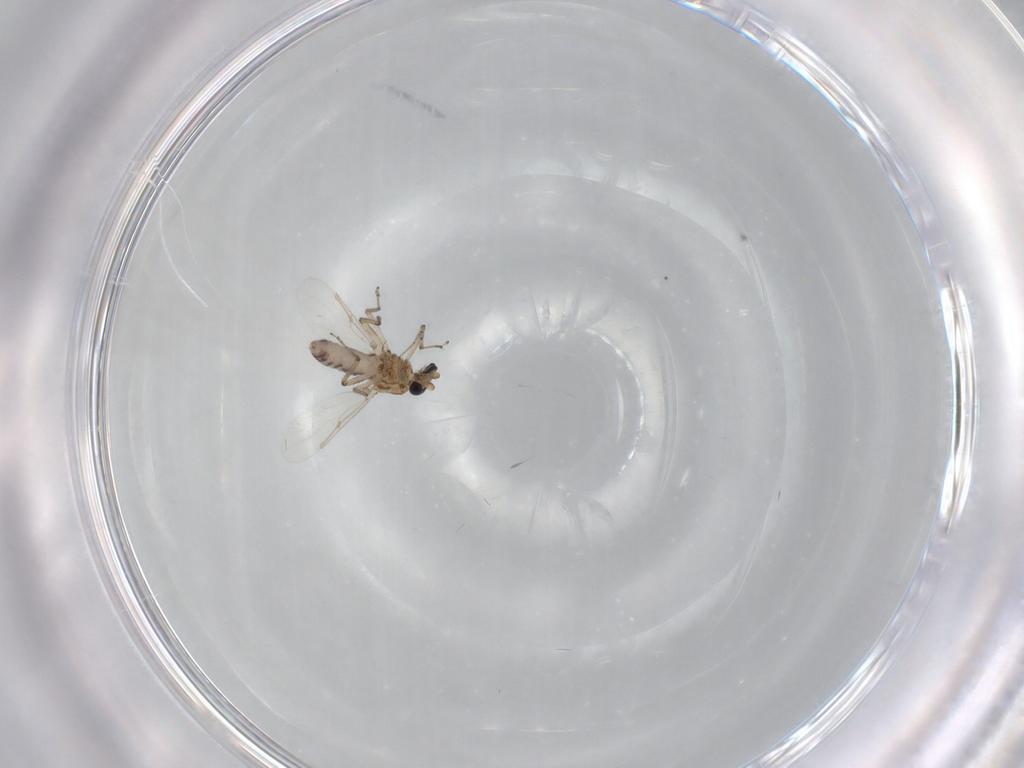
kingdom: Animalia
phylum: Arthropoda
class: Insecta
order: Diptera
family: Ceratopogonidae
